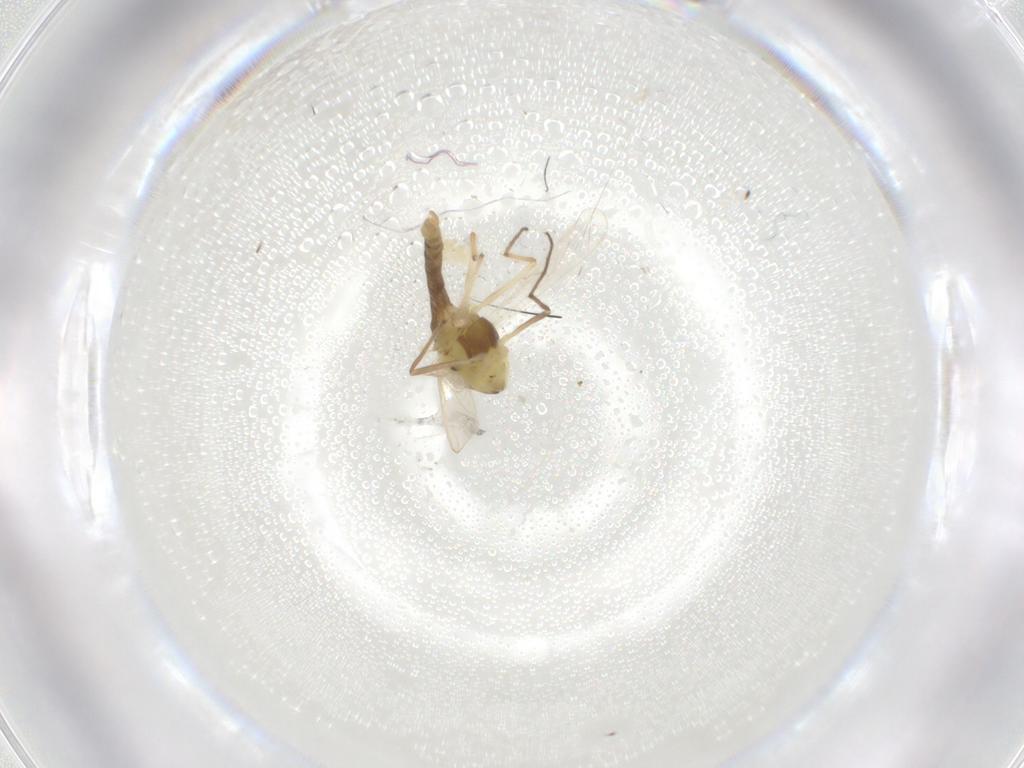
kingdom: Animalia
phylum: Arthropoda
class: Insecta
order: Diptera
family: Chironomidae
